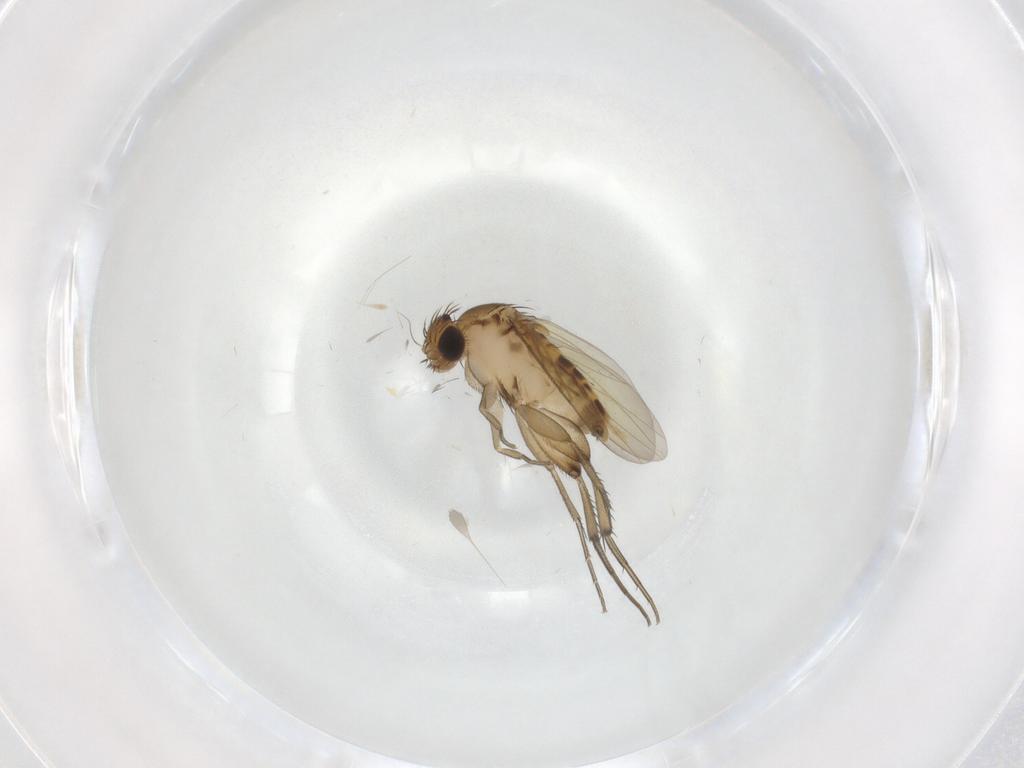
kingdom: Animalia
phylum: Arthropoda
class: Insecta
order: Diptera
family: Phoridae
